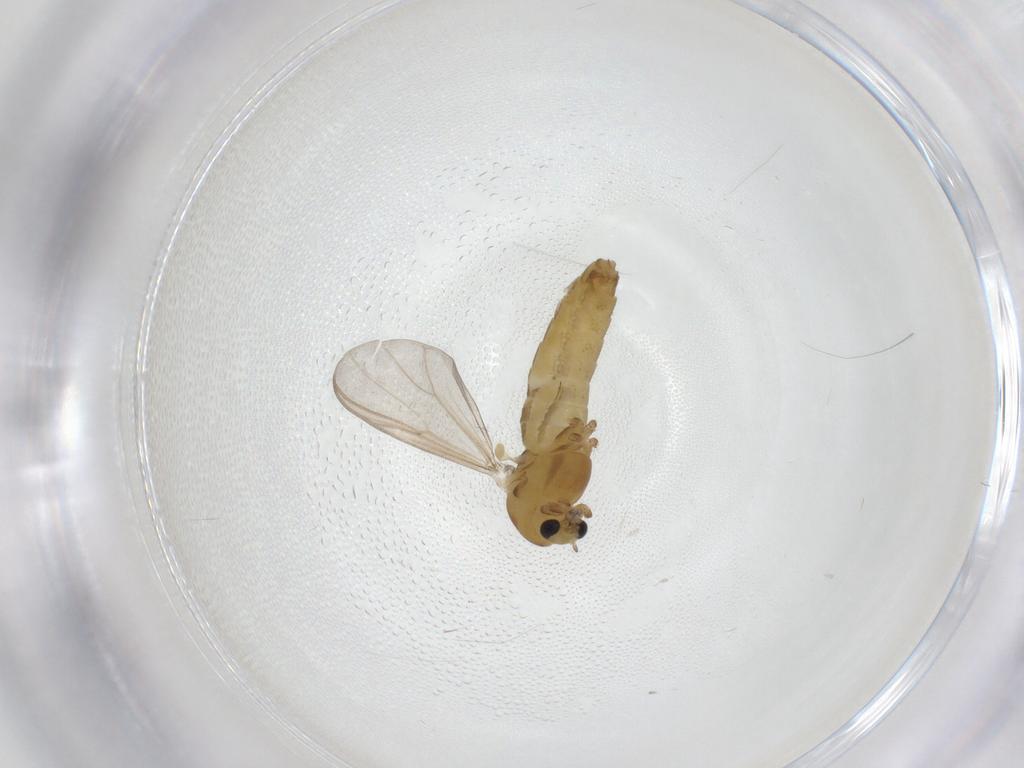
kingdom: Animalia
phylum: Arthropoda
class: Insecta
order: Diptera
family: Chironomidae
